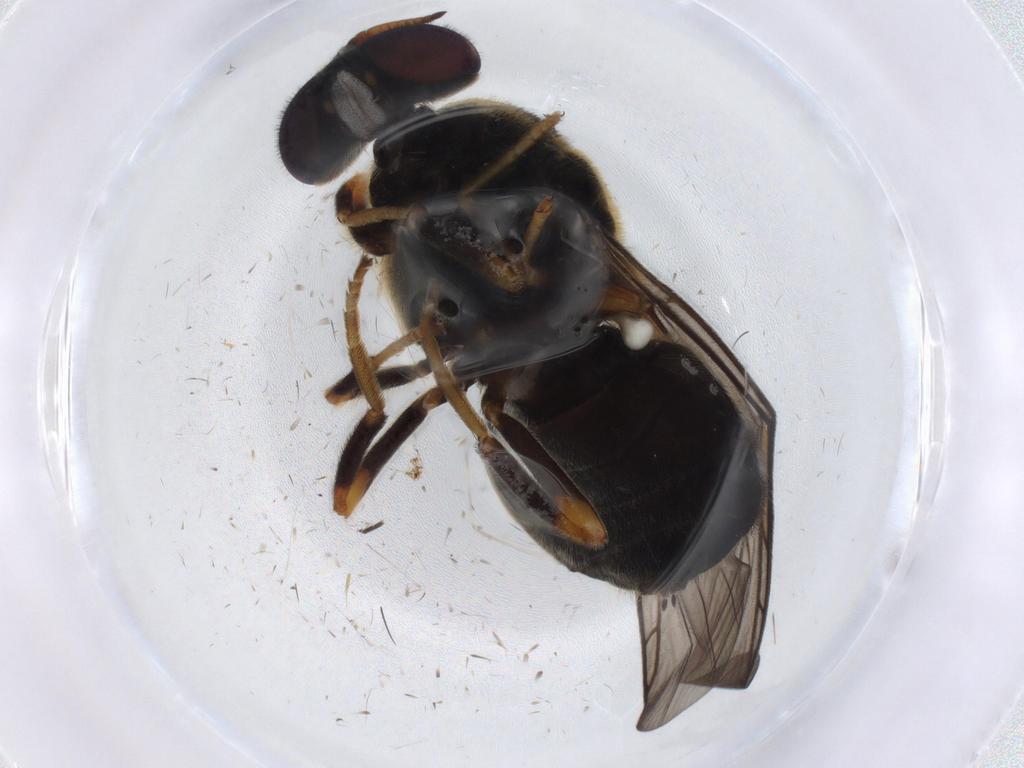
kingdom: Animalia
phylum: Arthropoda
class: Insecta
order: Diptera
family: Stratiomyidae
